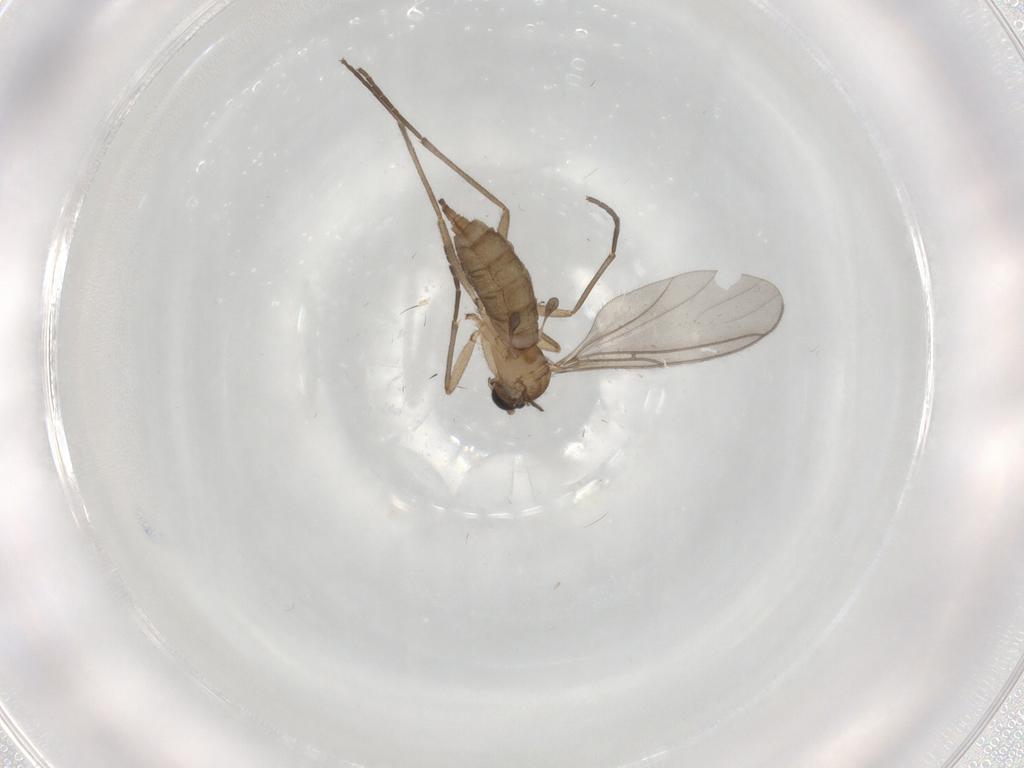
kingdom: Animalia
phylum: Arthropoda
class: Insecta
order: Diptera
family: Sciaridae
